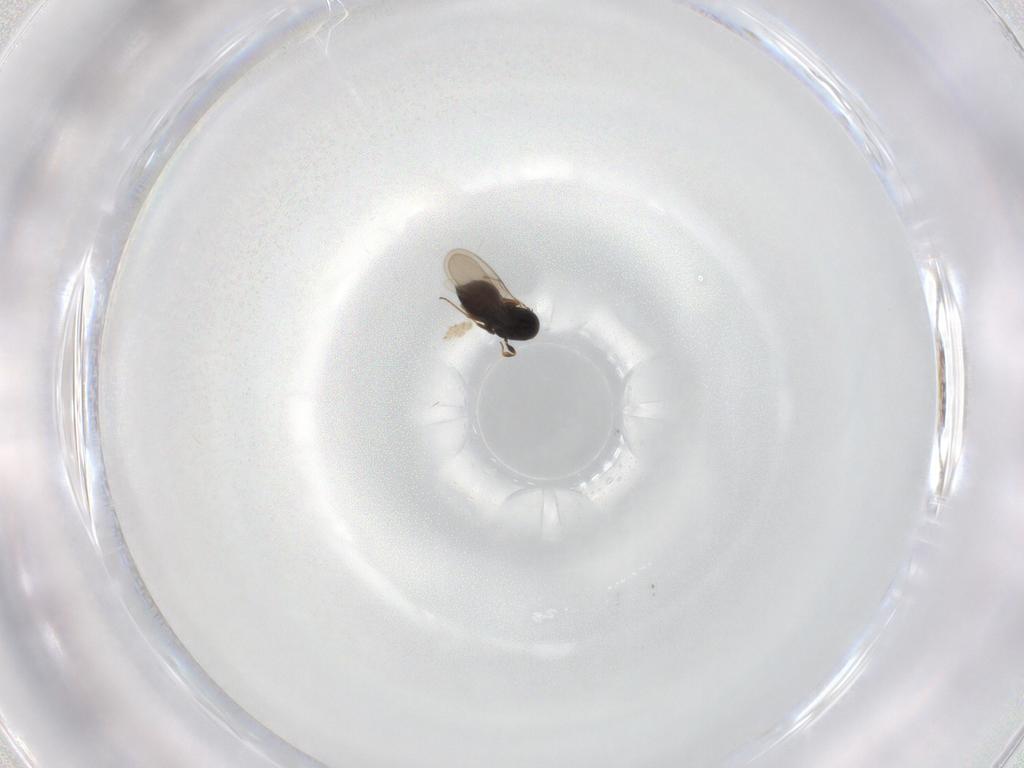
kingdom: Animalia
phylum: Arthropoda
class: Insecta
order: Hymenoptera
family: Scelionidae
